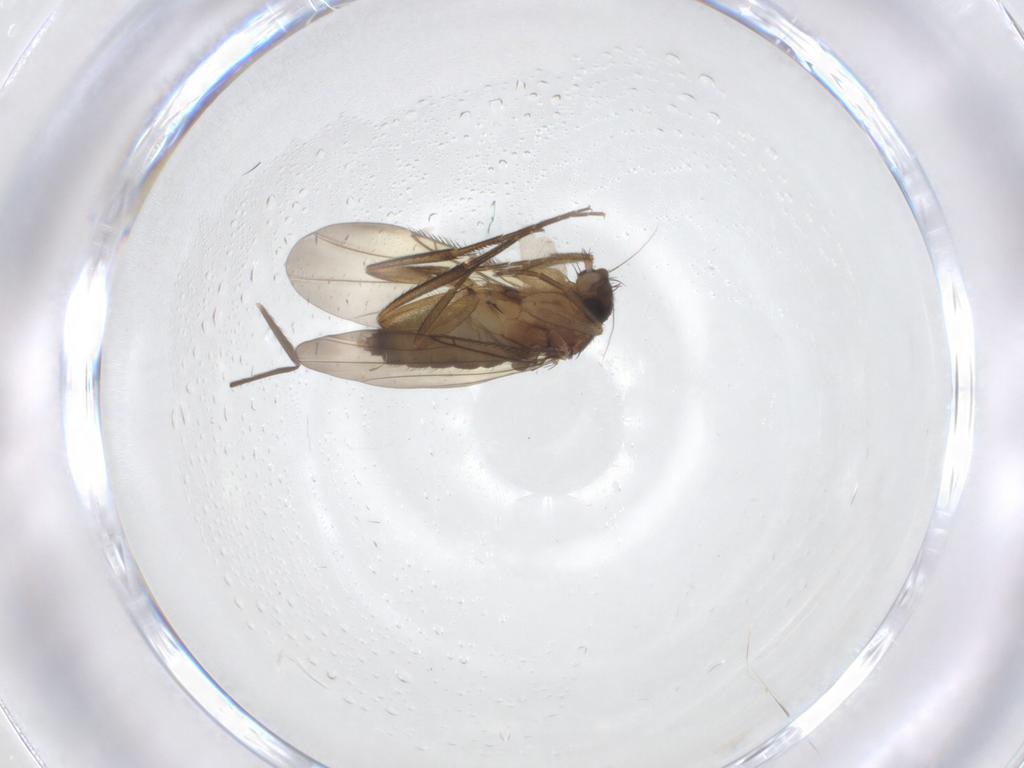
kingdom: Animalia
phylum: Arthropoda
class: Insecta
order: Diptera
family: Phoridae
